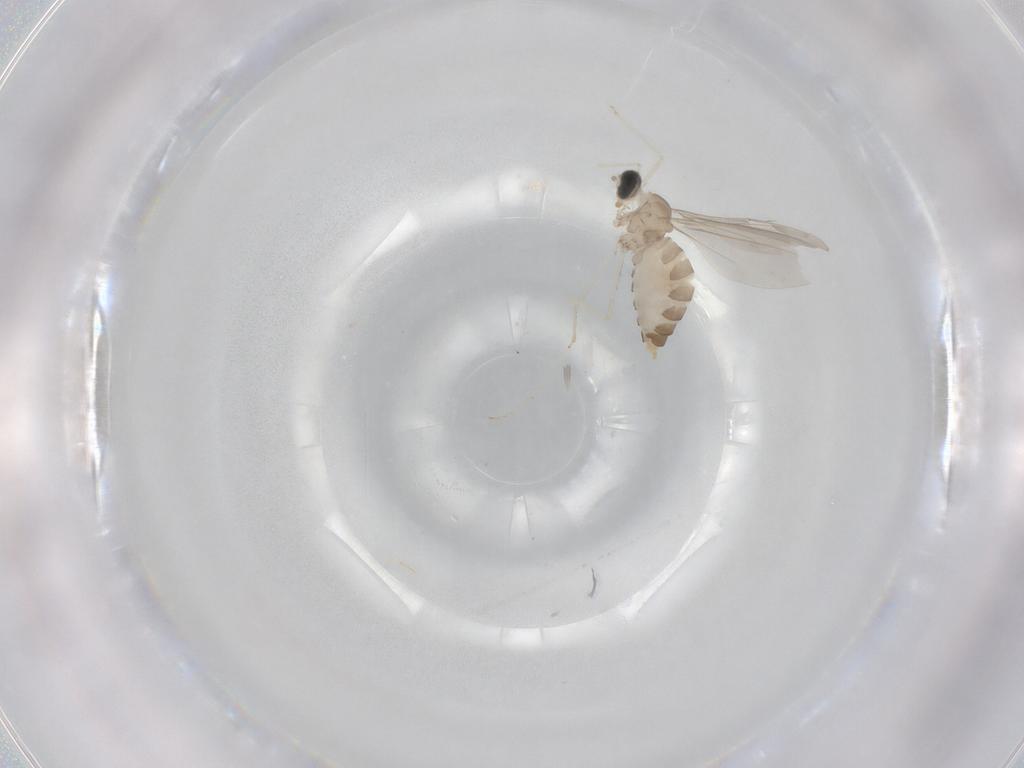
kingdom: Animalia
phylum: Arthropoda
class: Insecta
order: Diptera
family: Cecidomyiidae
